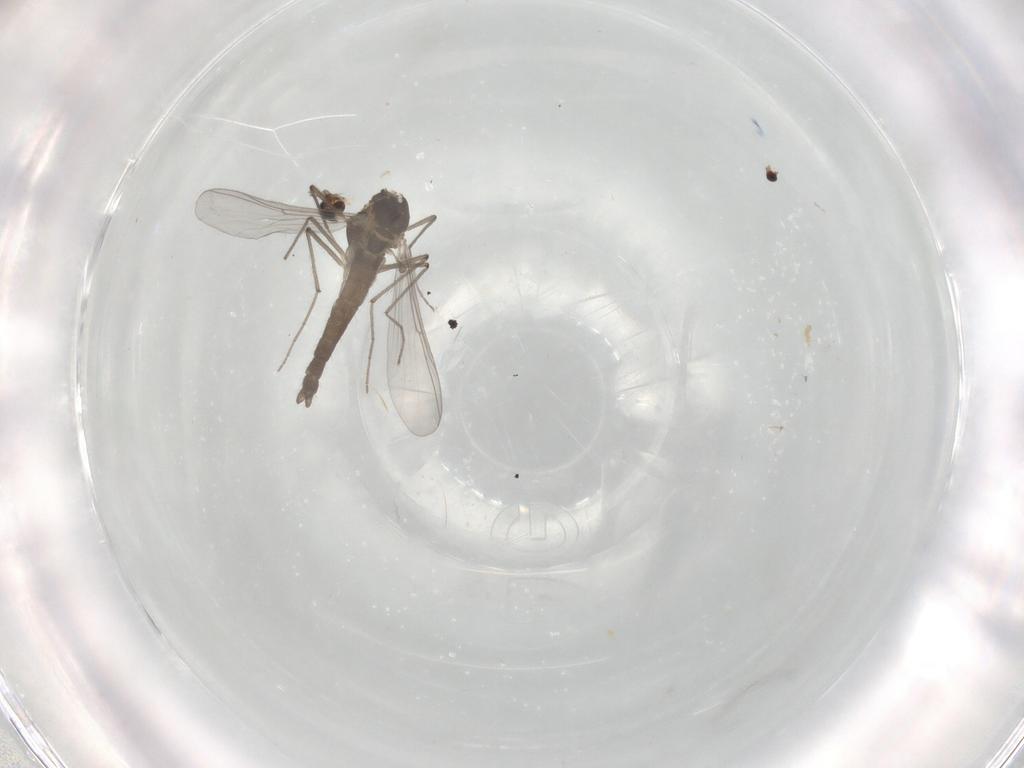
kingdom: Animalia
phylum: Arthropoda
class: Insecta
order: Diptera
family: Chironomidae
